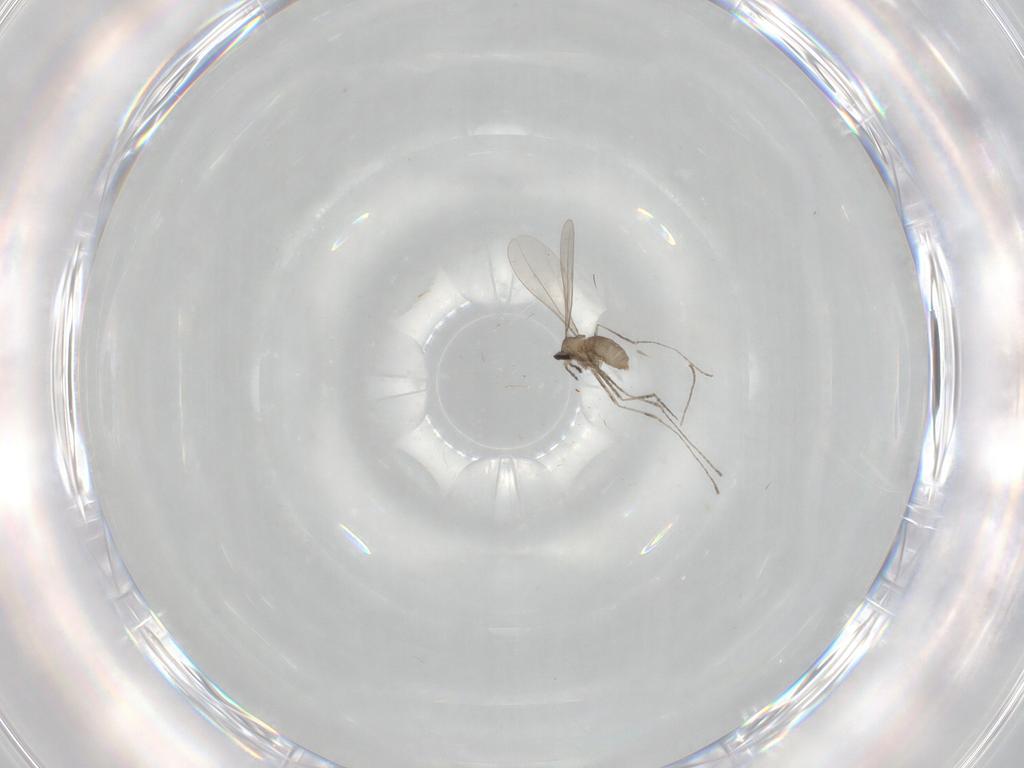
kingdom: Animalia
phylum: Arthropoda
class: Insecta
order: Diptera
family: Cecidomyiidae
